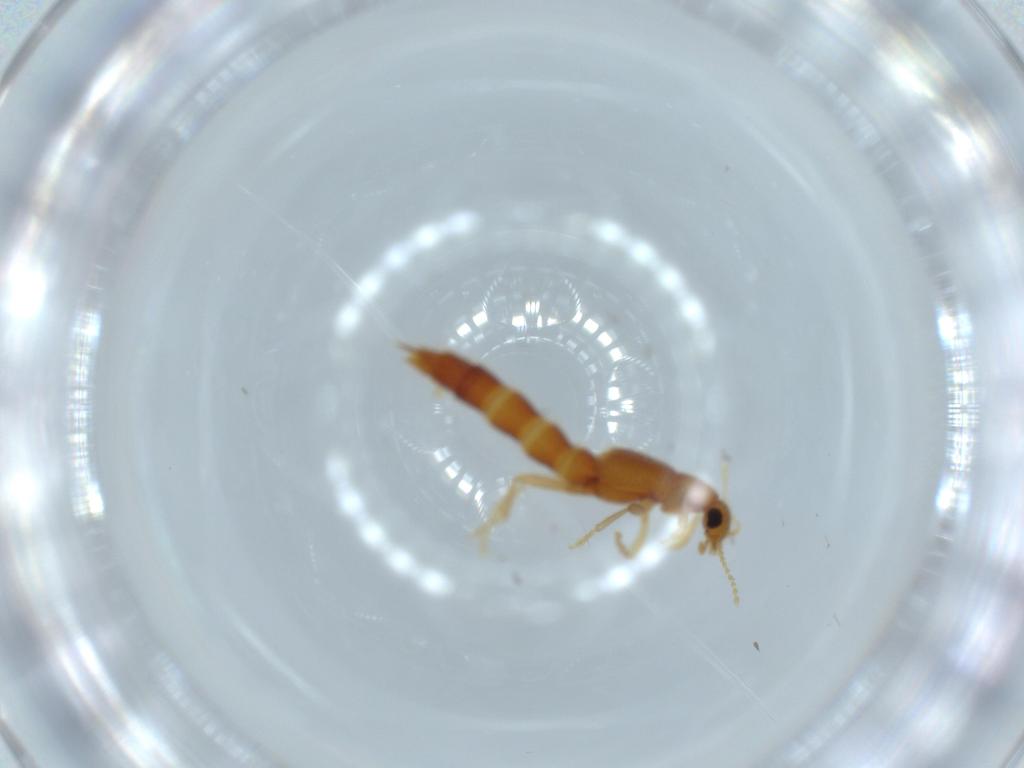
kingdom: Animalia
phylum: Arthropoda
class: Insecta
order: Coleoptera
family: Staphylinidae
